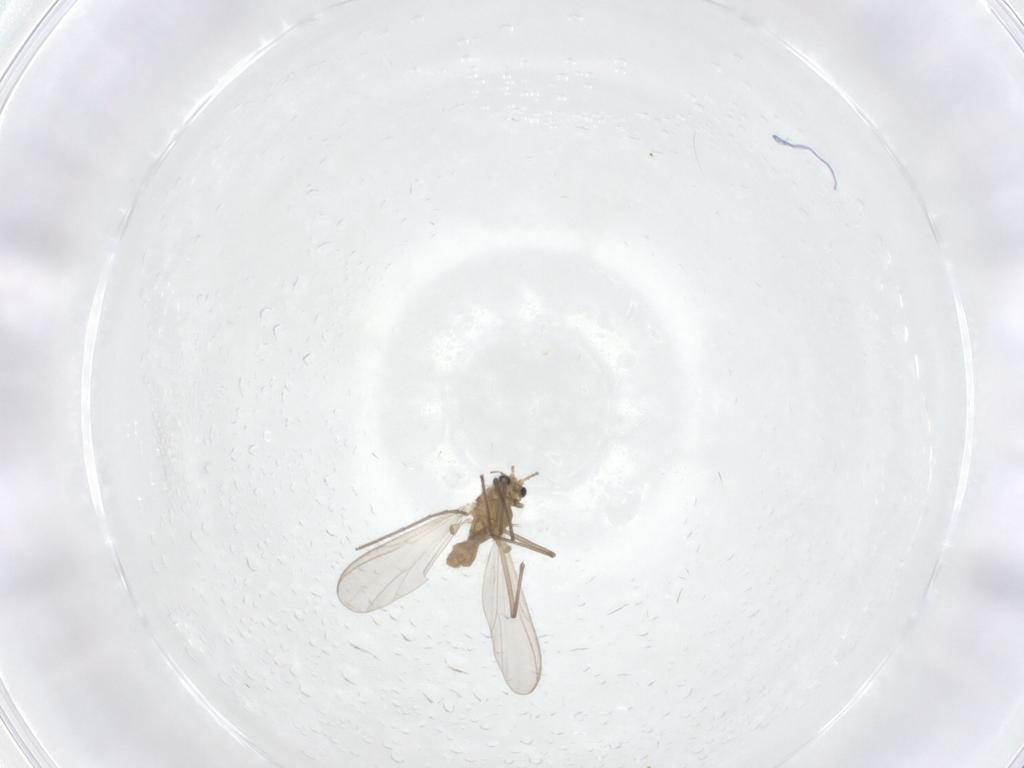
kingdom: Animalia
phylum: Arthropoda
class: Insecta
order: Diptera
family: Chironomidae
